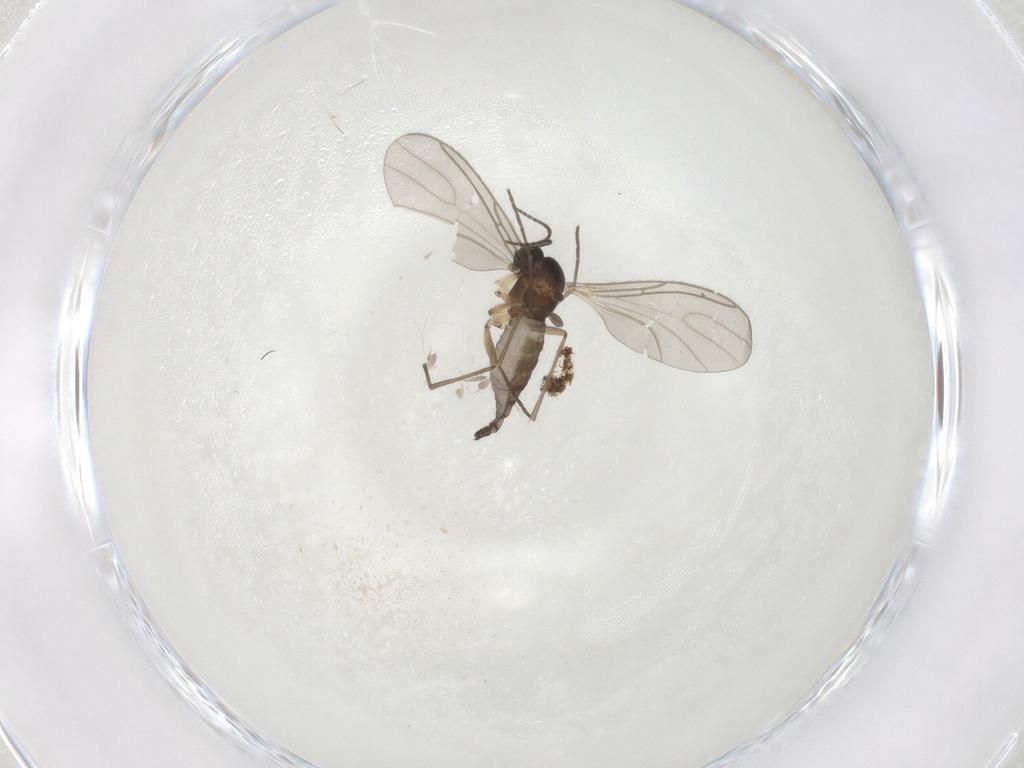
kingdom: Animalia
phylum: Arthropoda
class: Insecta
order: Diptera
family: Sciaridae
